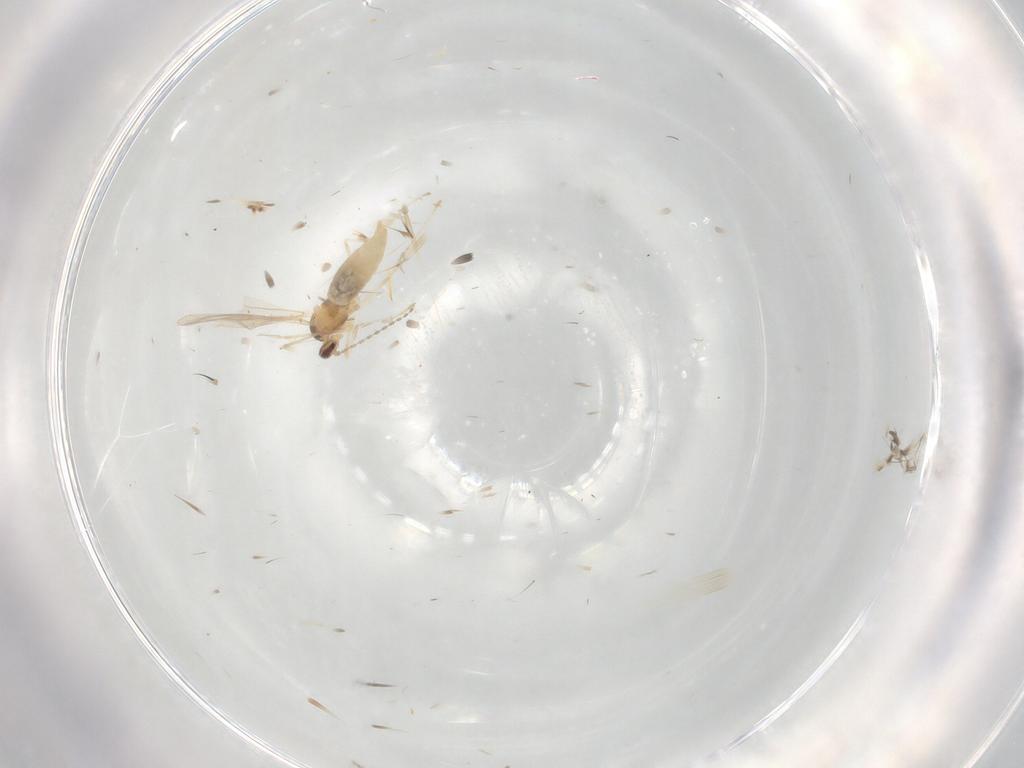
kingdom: Animalia
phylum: Arthropoda
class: Insecta
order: Diptera
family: Cecidomyiidae
